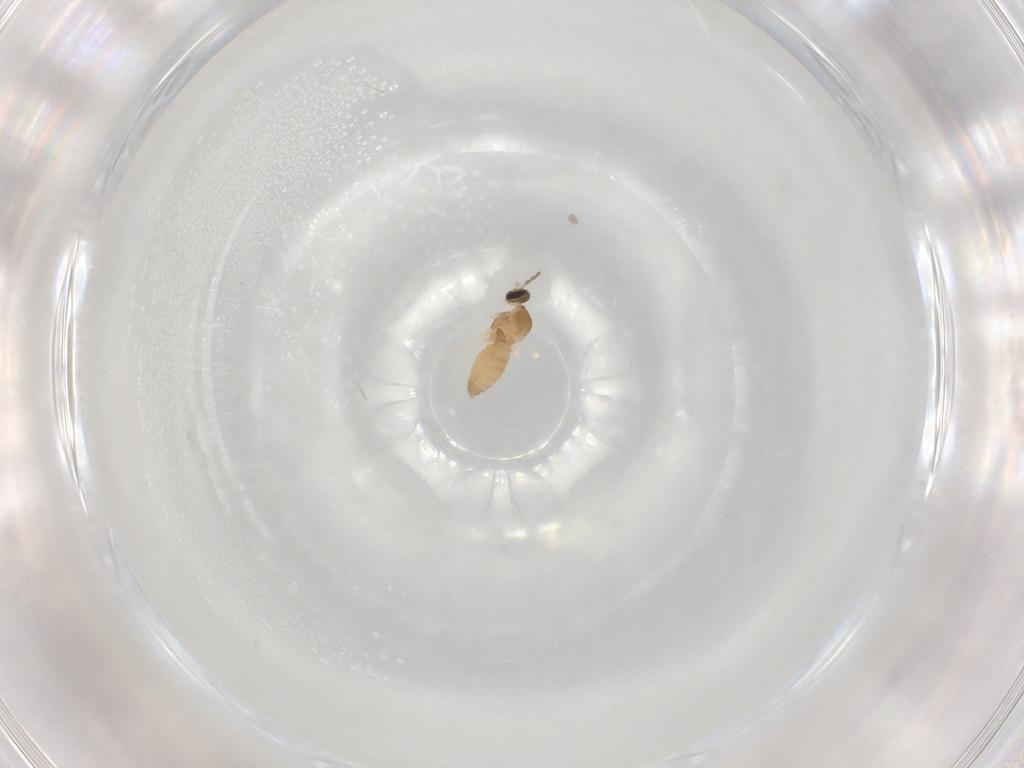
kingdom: Animalia
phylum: Arthropoda
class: Insecta
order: Diptera
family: Cecidomyiidae
